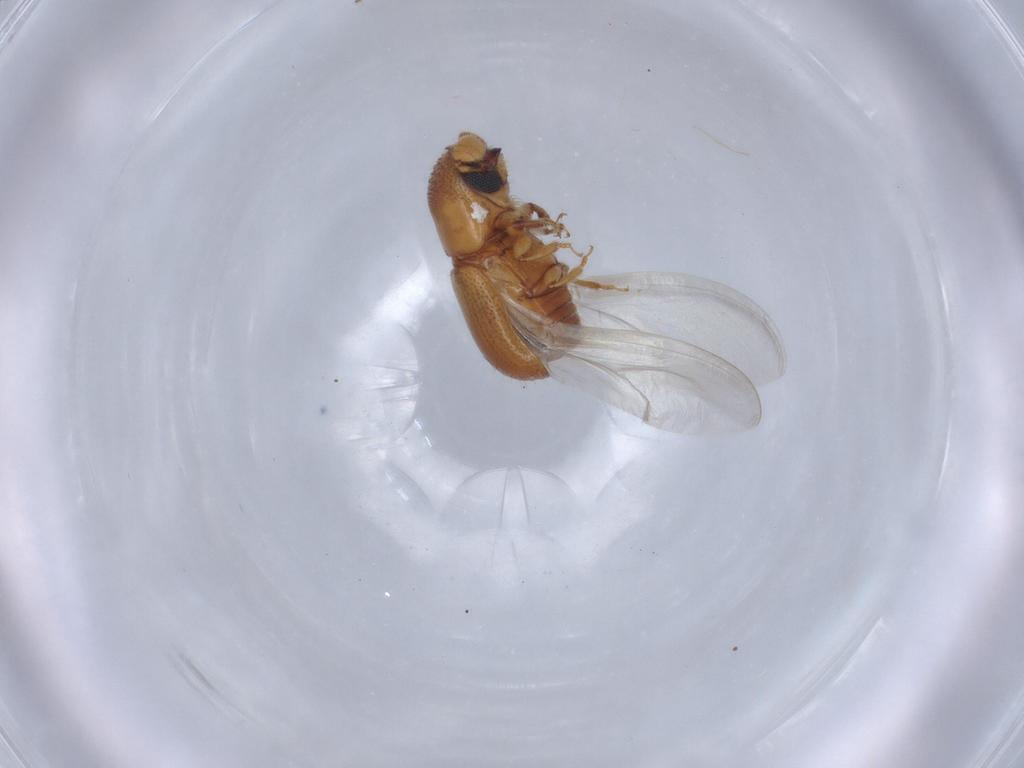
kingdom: Animalia
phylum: Arthropoda
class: Insecta
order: Coleoptera
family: Curculionidae
